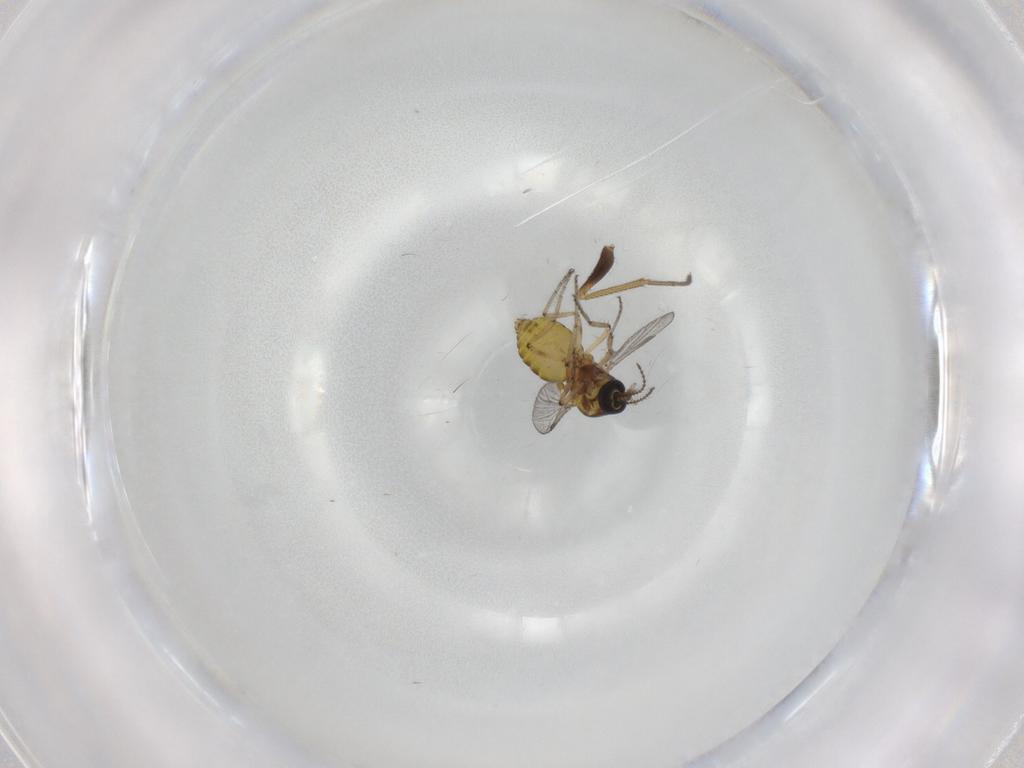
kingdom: Animalia
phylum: Arthropoda
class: Insecta
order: Diptera
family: Ceratopogonidae
